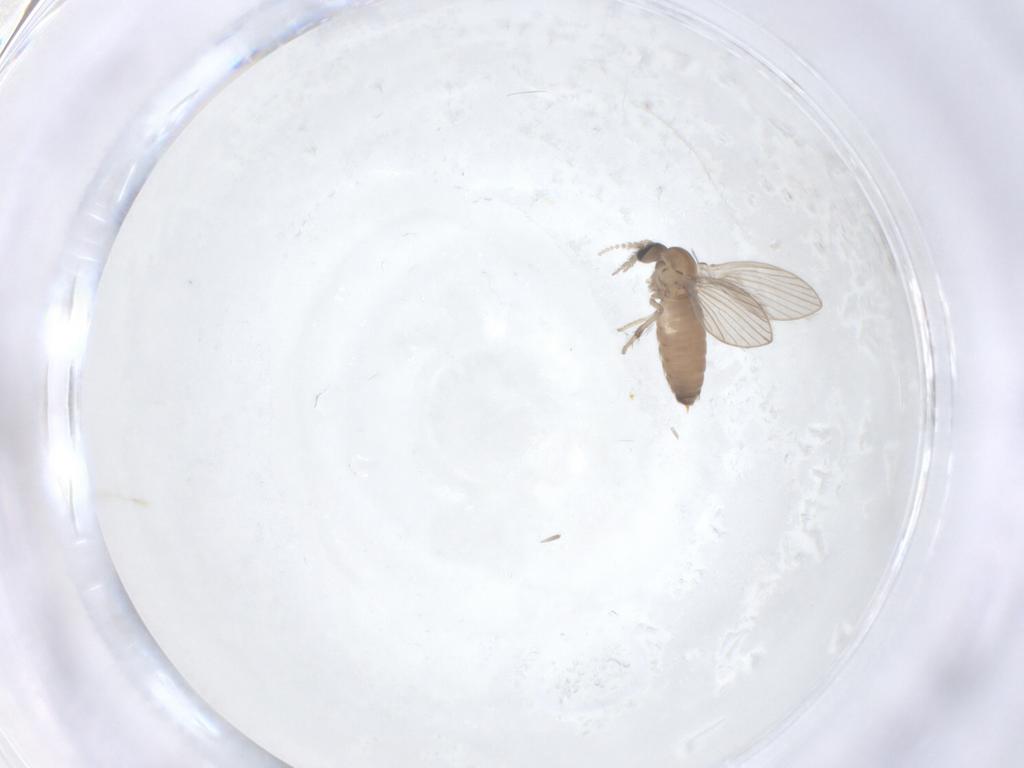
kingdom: Animalia
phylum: Arthropoda
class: Insecta
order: Diptera
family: Psychodidae
